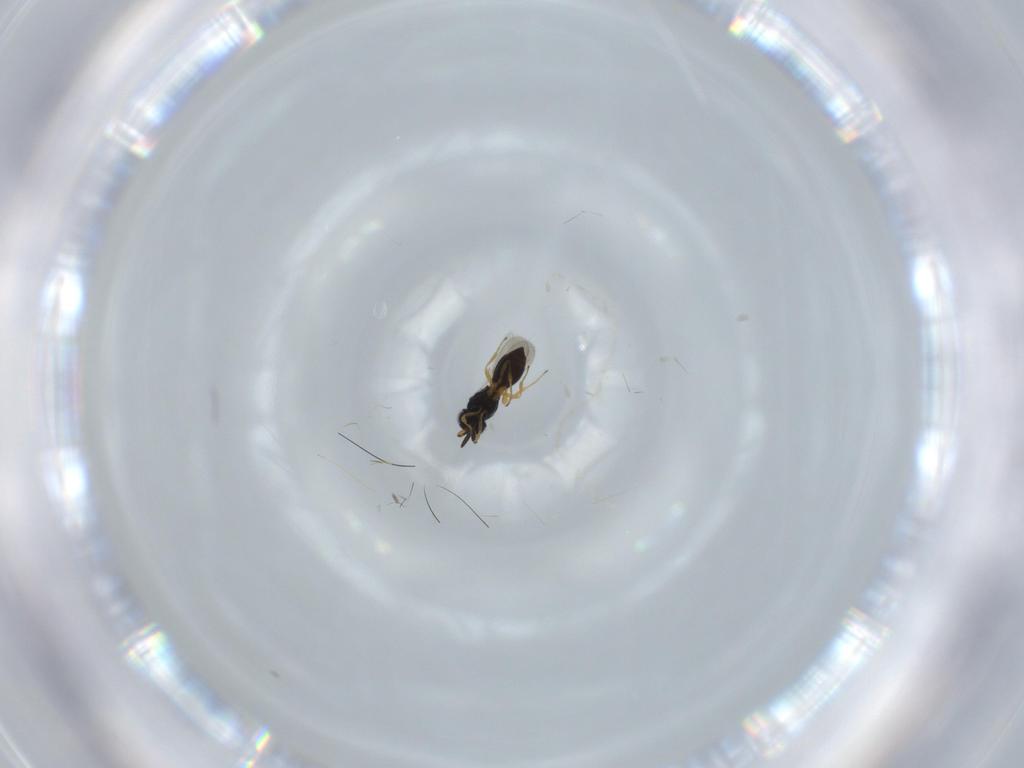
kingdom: Animalia
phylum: Arthropoda
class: Insecta
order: Hymenoptera
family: Scelionidae
